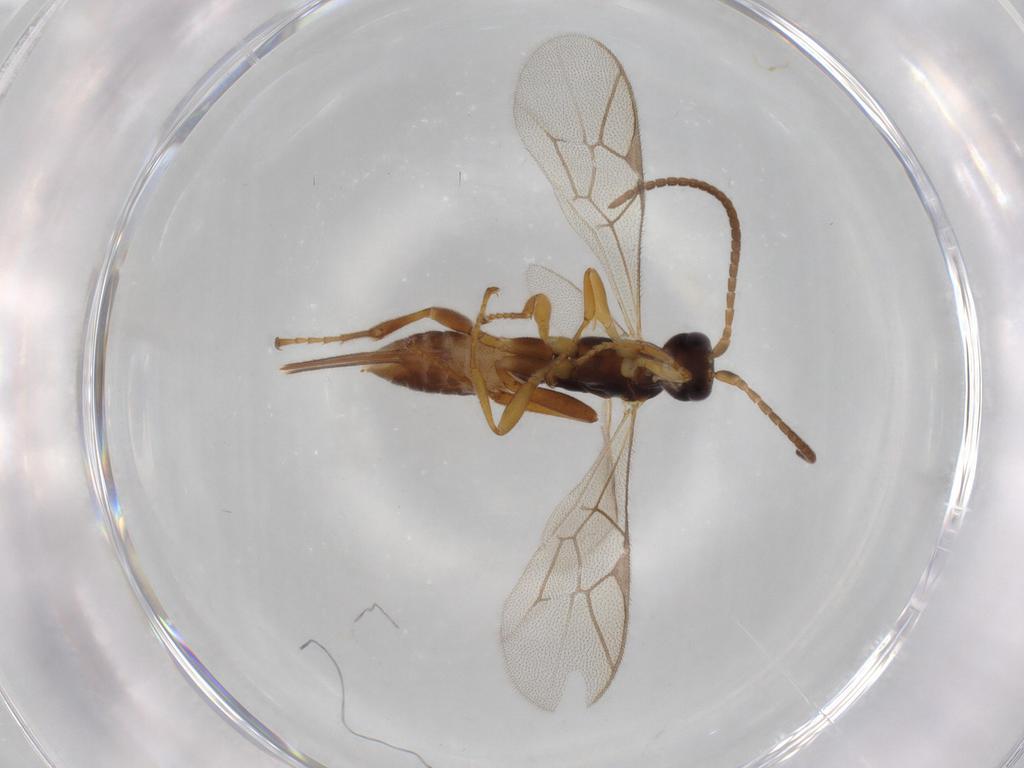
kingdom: Animalia
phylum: Arthropoda
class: Insecta
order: Hymenoptera
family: Ichneumonidae
